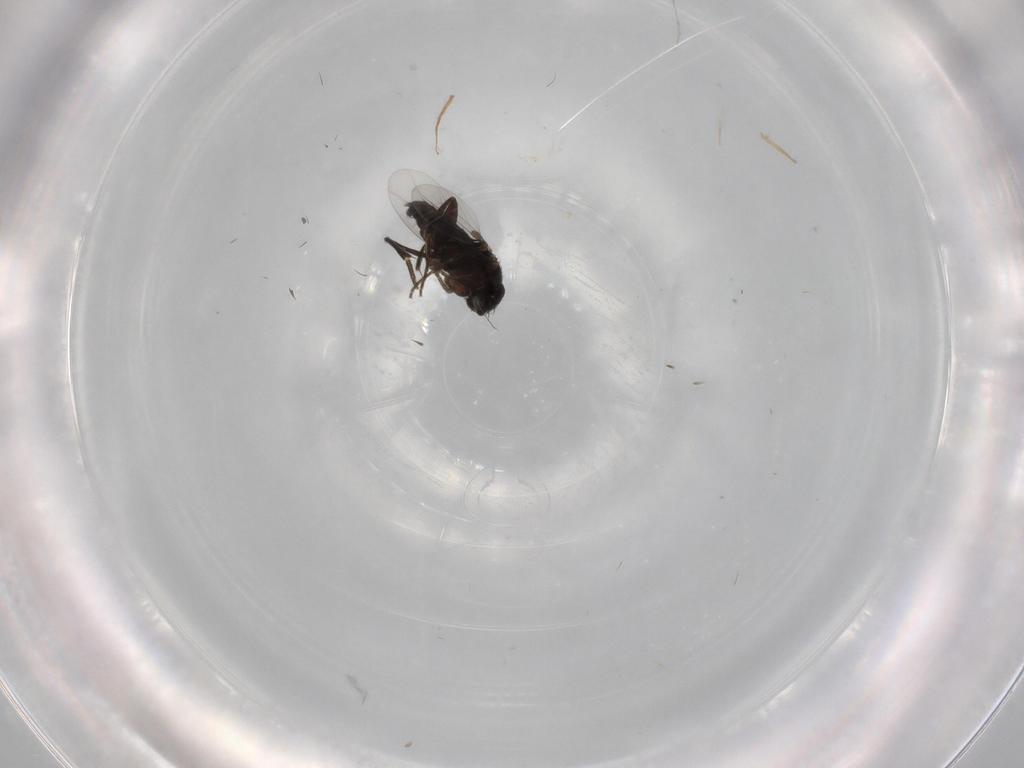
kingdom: Animalia
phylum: Arthropoda
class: Insecta
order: Diptera
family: Phoridae
